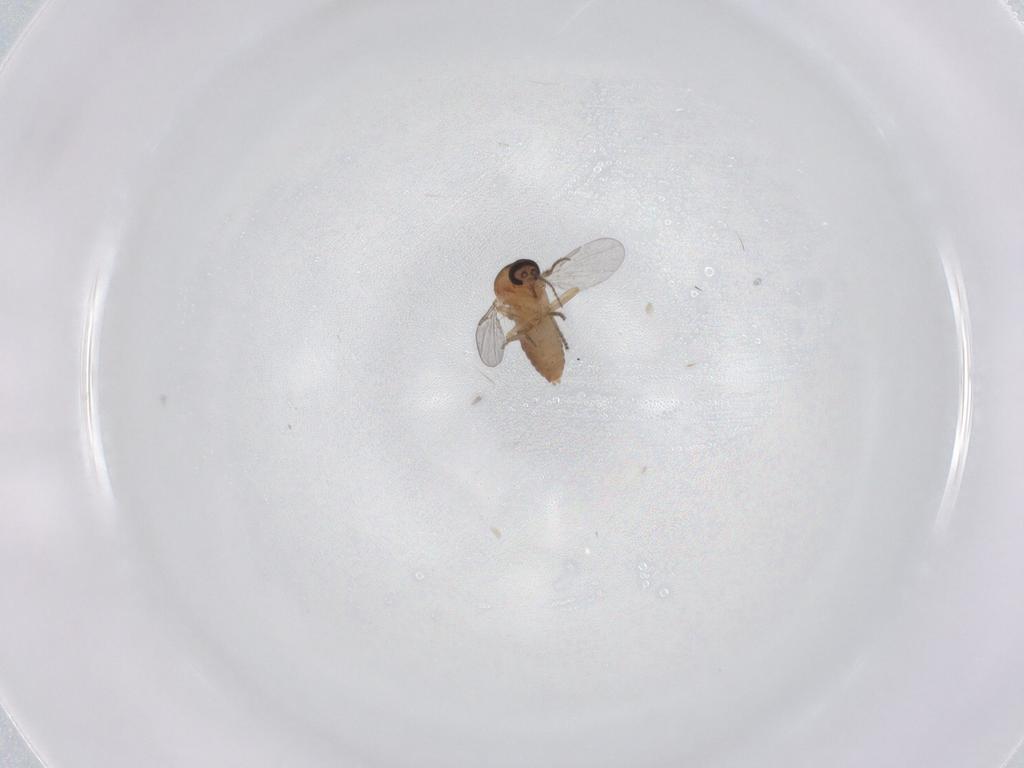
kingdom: Animalia
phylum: Arthropoda
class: Insecta
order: Diptera
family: Ceratopogonidae
